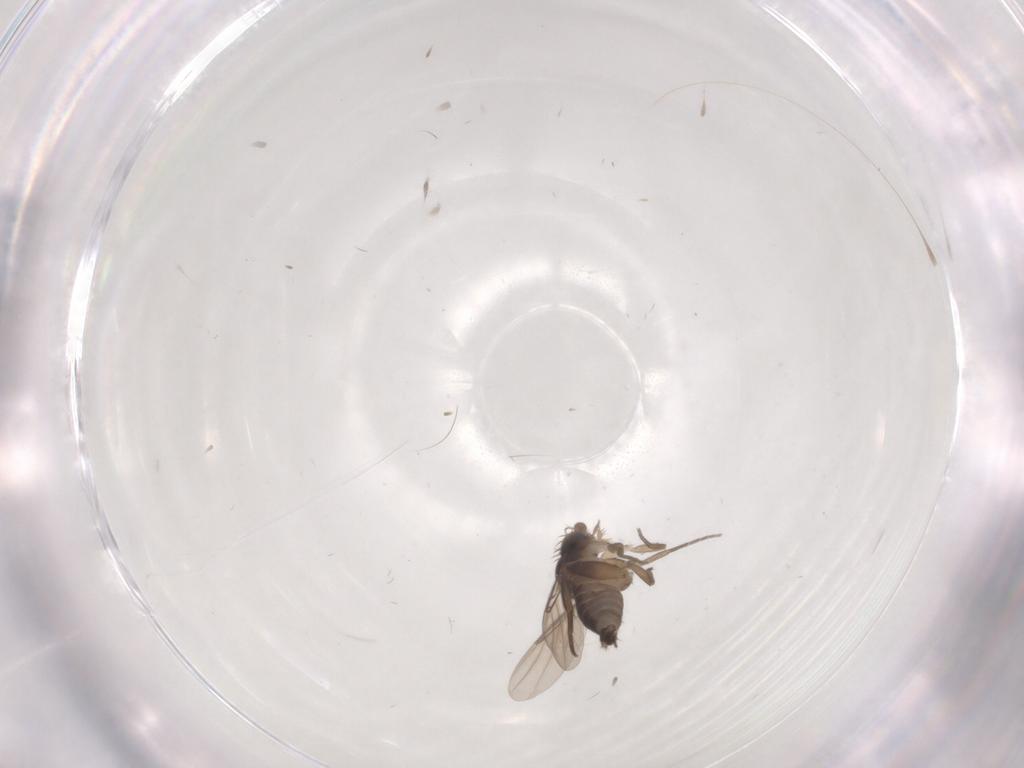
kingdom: Animalia
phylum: Arthropoda
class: Insecta
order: Diptera
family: Phoridae
